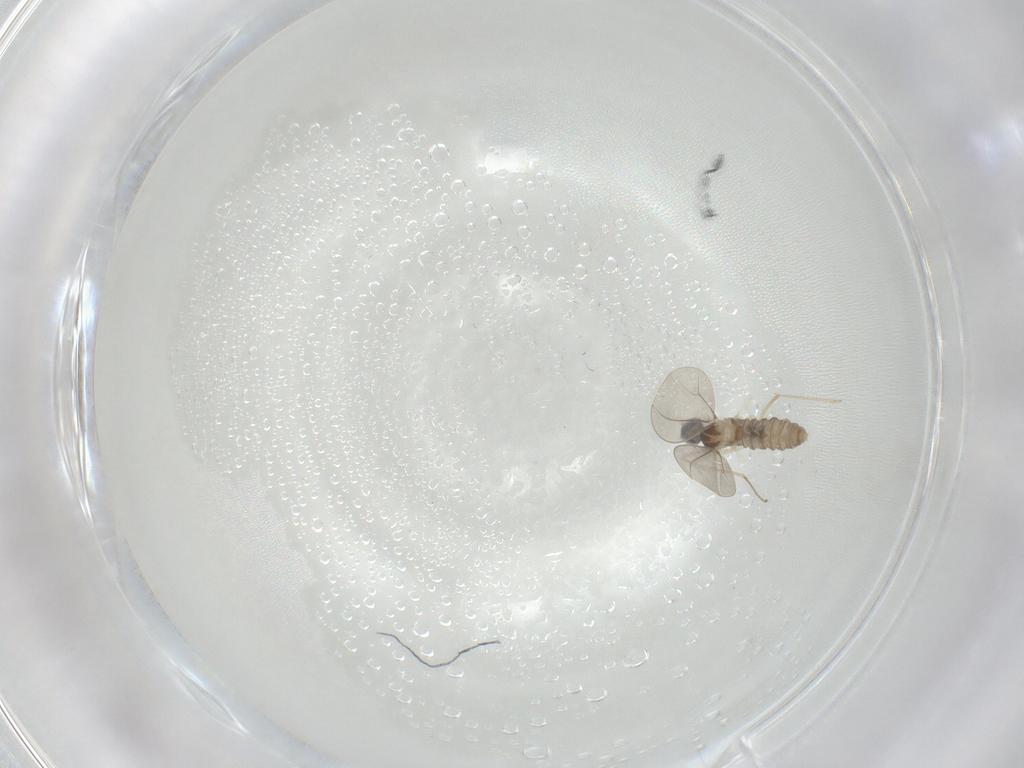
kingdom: Animalia
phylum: Arthropoda
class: Insecta
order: Diptera
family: Cecidomyiidae
